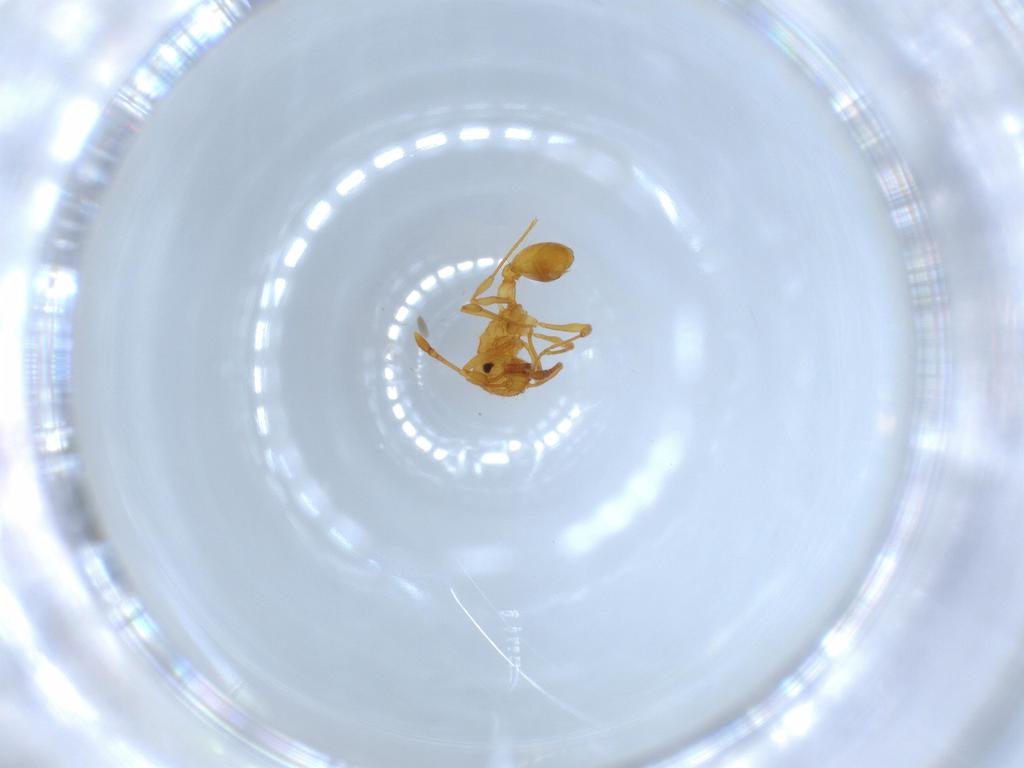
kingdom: Animalia
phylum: Arthropoda
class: Insecta
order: Hymenoptera
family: Formicidae
